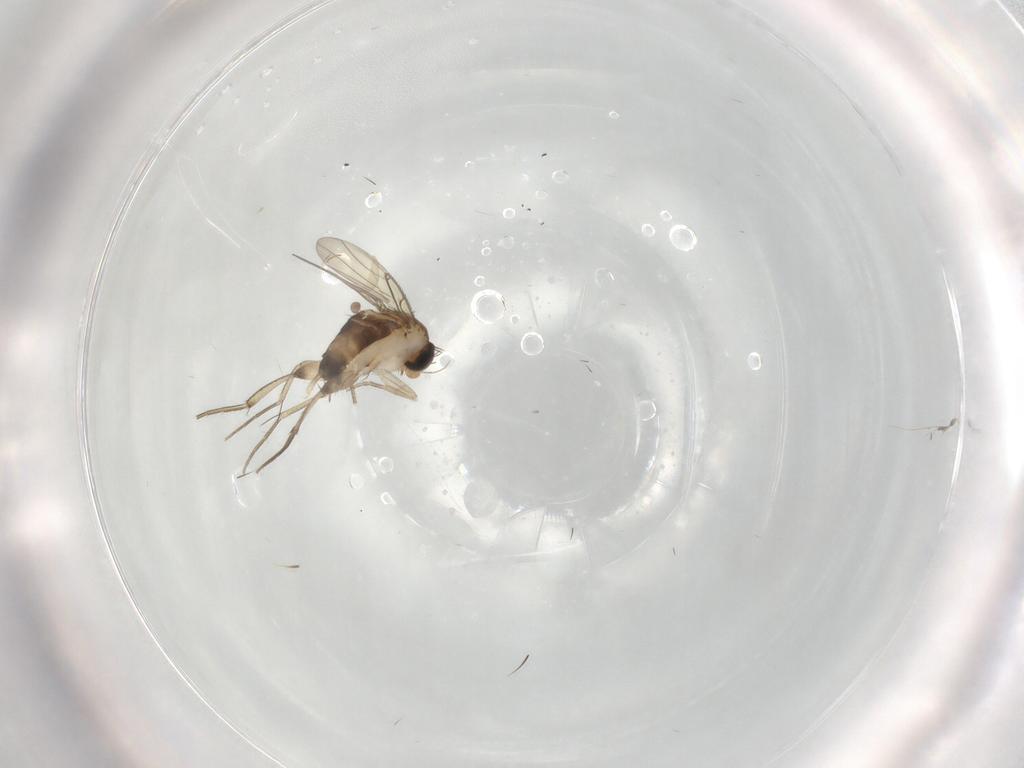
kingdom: Animalia
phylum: Arthropoda
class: Insecta
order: Diptera
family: Phoridae
